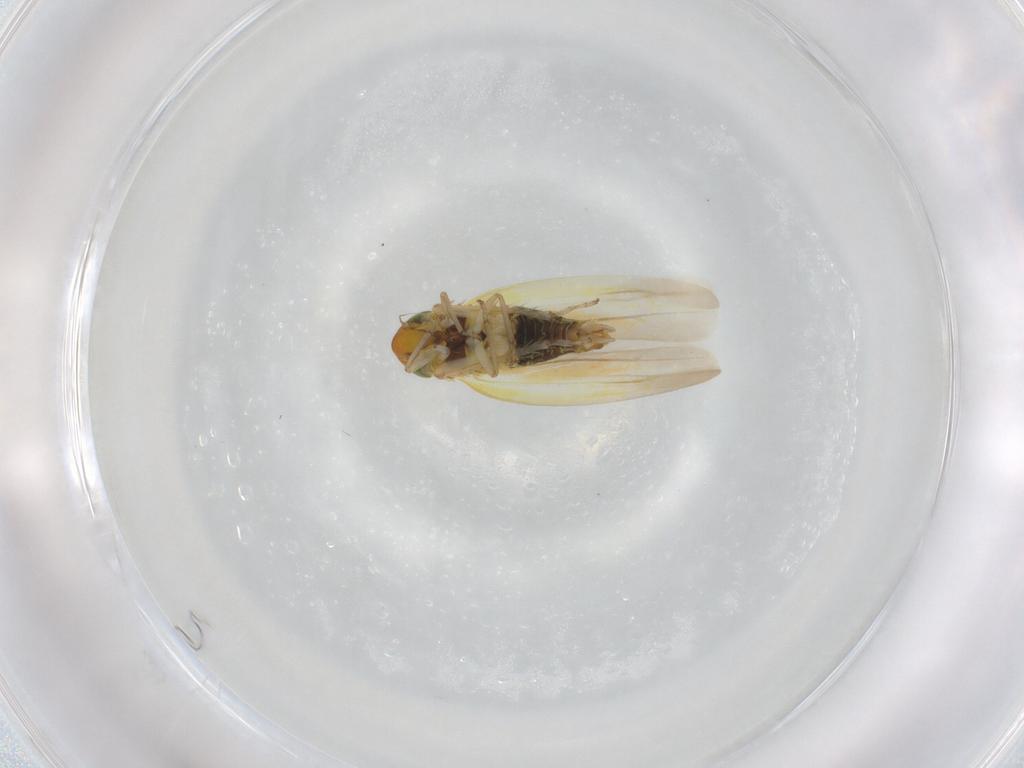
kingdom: Animalia
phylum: Arthropoda
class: Insecta
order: Hemiptera
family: Cicadellidae
